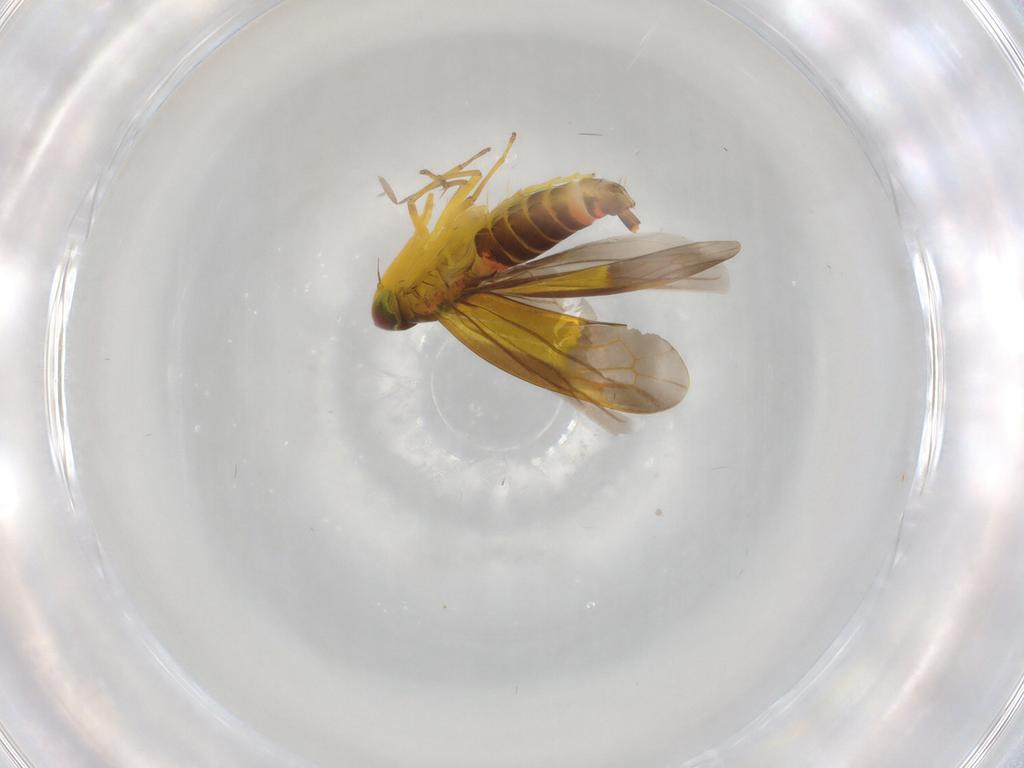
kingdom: Animalia
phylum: Arthropoda
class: Insecta
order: Hemiptera
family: Cicadellidae
